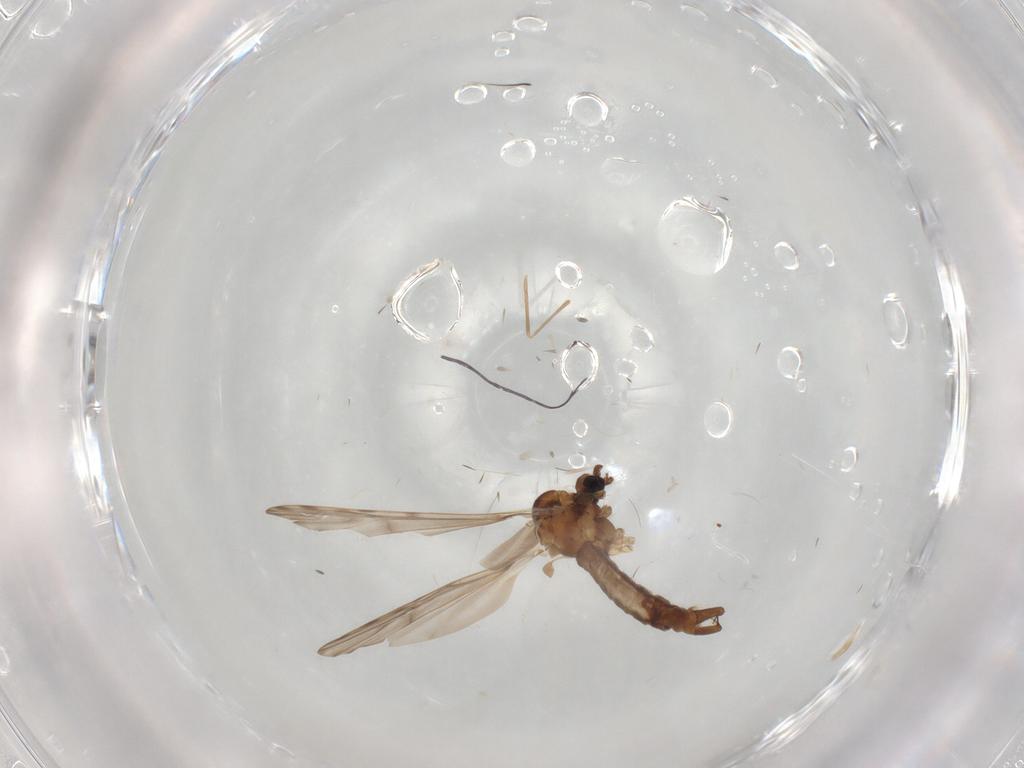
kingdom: Animalia
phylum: Arthropoda
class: Insecta
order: Diptera
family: Limoniidae
